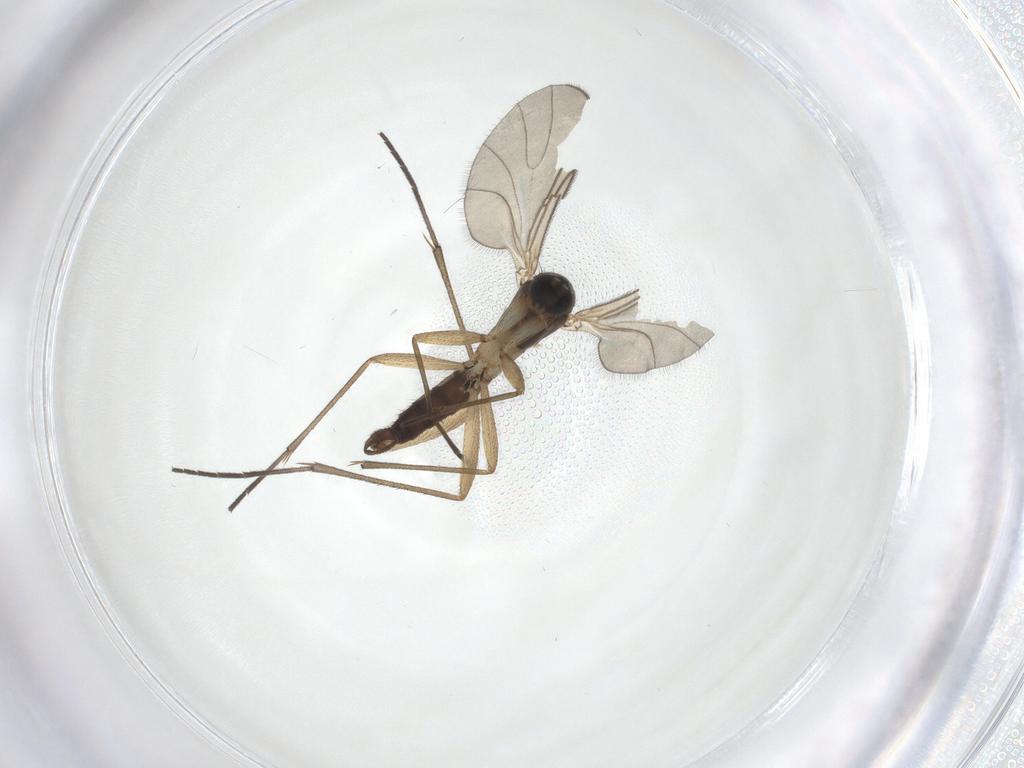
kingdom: Animalia
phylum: Arthropoda
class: Insecta
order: Diptera
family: Sciaridae
